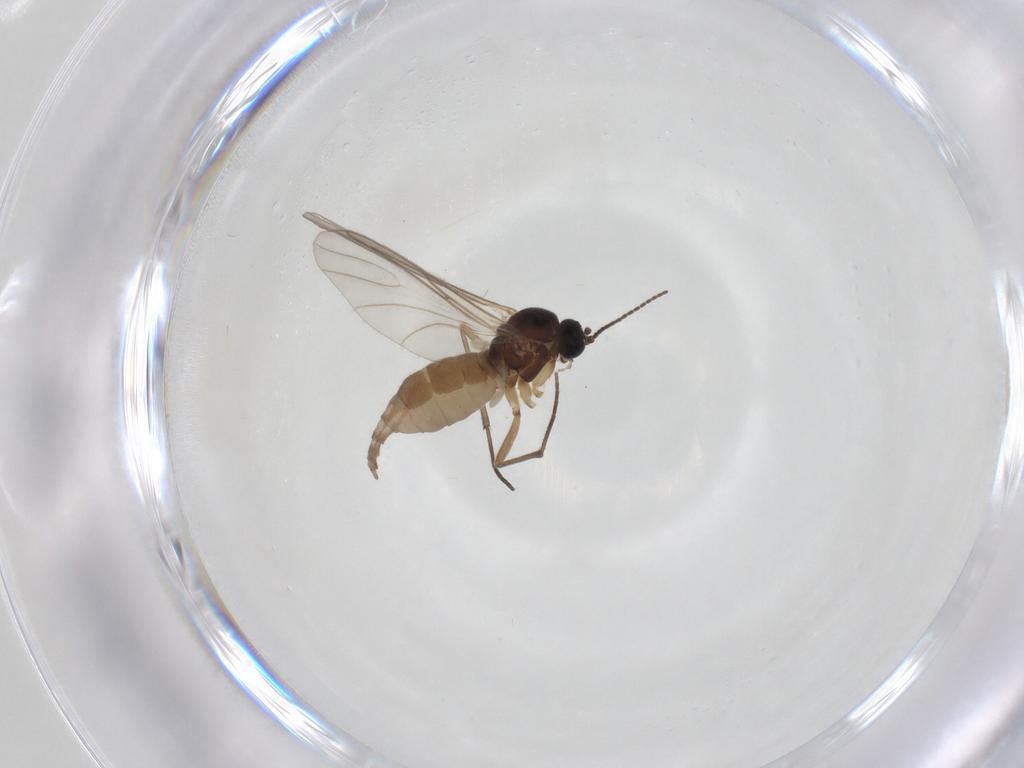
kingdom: Animalia
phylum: Arthropoda
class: Insecta
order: Diptera
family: Sciaridae
